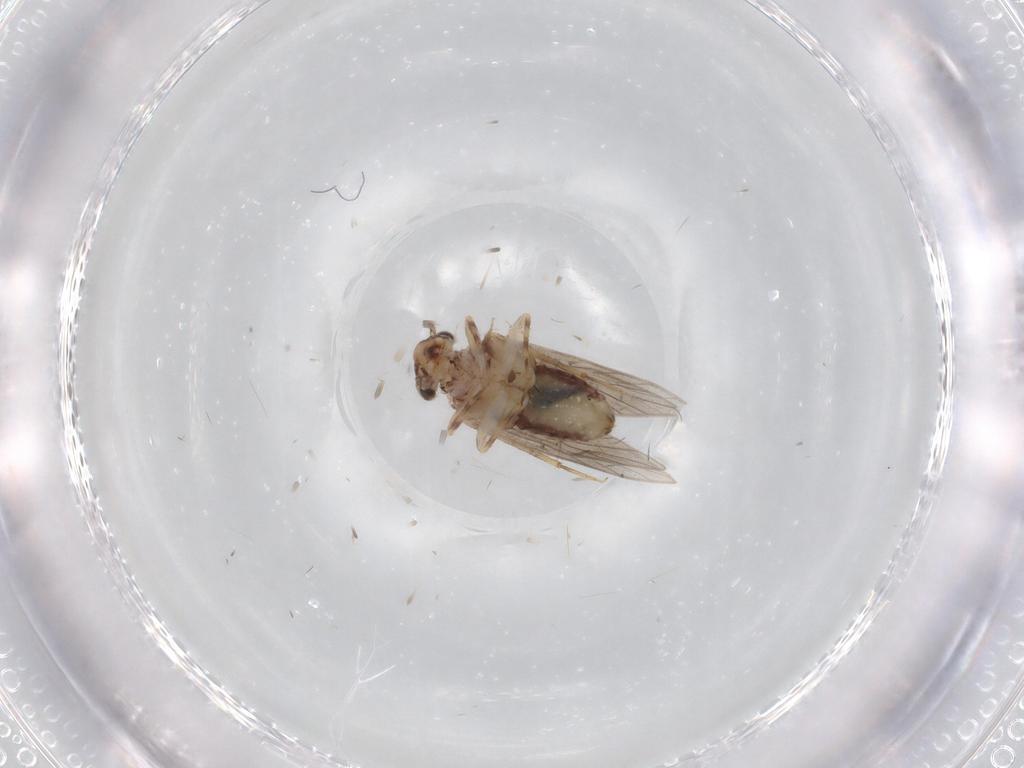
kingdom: Animalia
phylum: Arthropoda
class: Insecta
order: Psocodea
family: Lepidopsocidae
